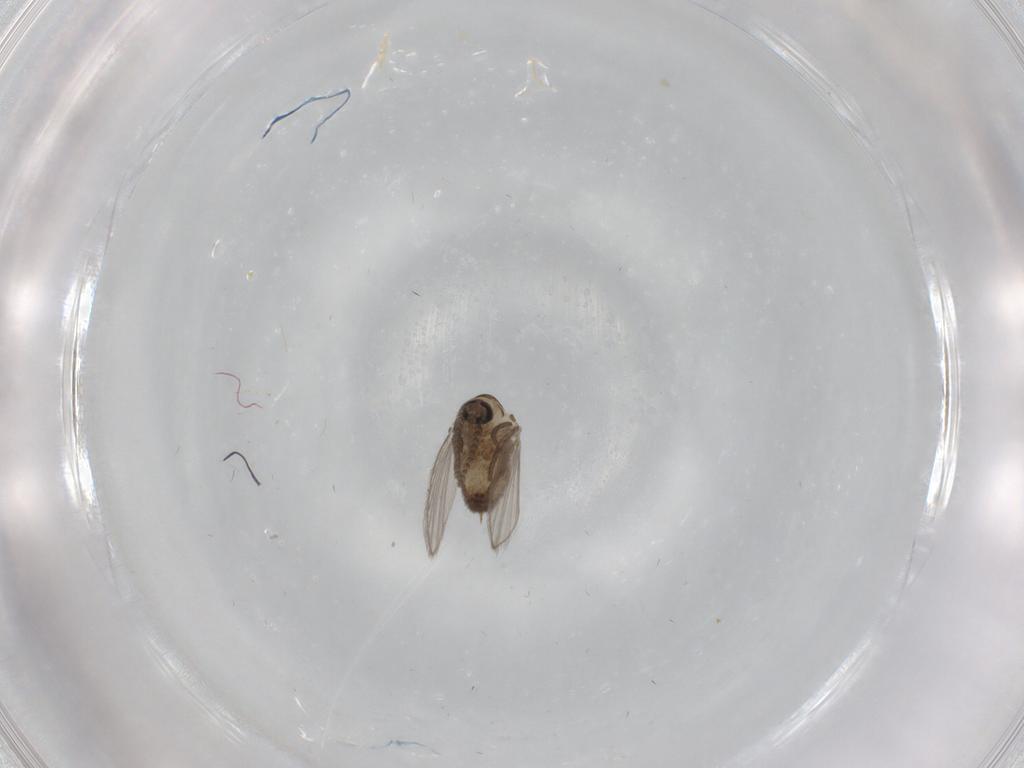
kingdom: Animalia
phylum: Arthropoda
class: Insecta
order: Diptera
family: Psychodidae
